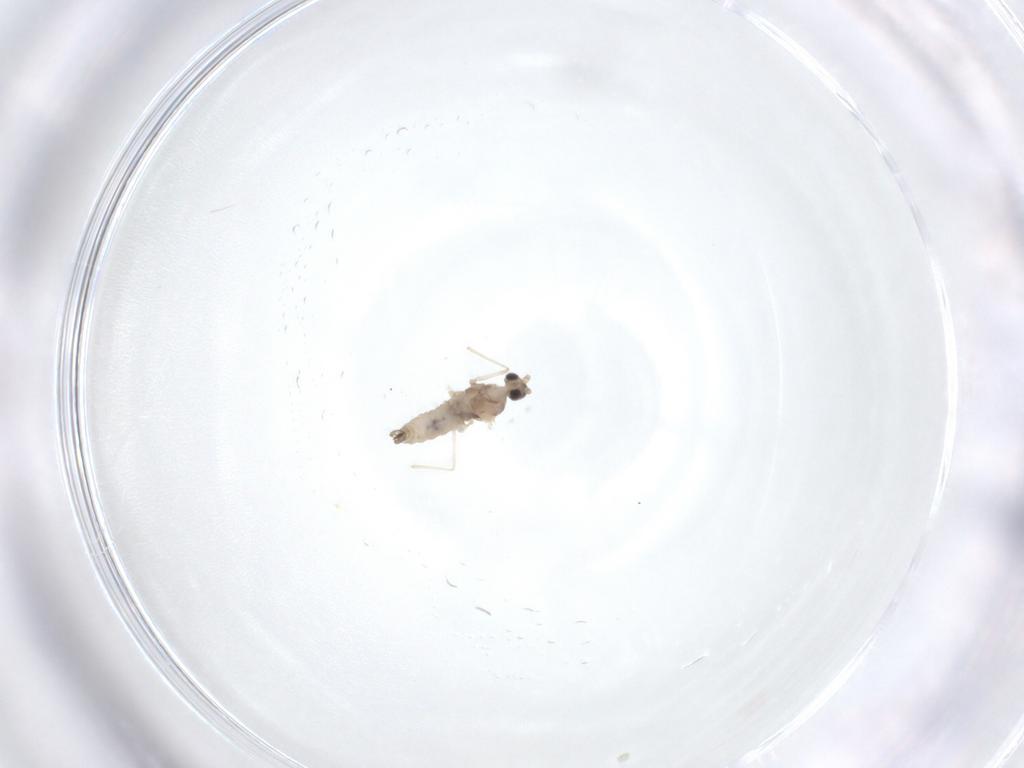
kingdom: Animalia
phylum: Arthropoda
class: Insecta
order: Diptera
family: Cecidomyiidae
